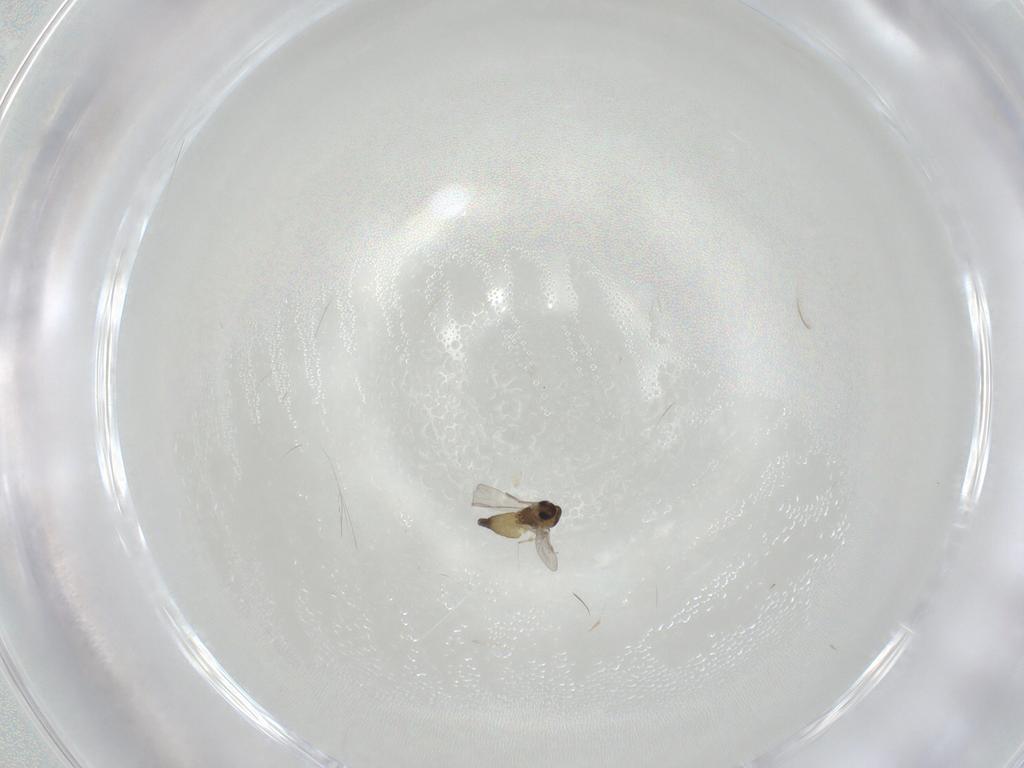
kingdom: Animalia
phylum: Arthropoda
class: Insecta
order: Diptera
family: Chironomidae
